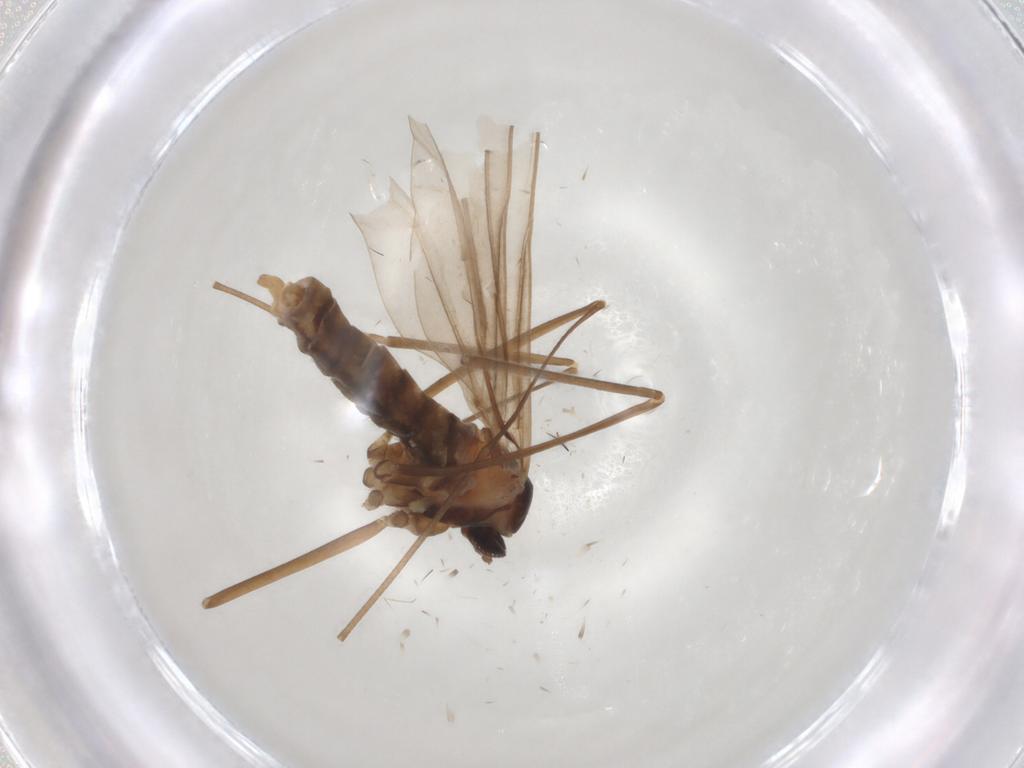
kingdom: Animalia
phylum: Arthropoda
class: Insecta
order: Diptera
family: Cecidomyiidae
